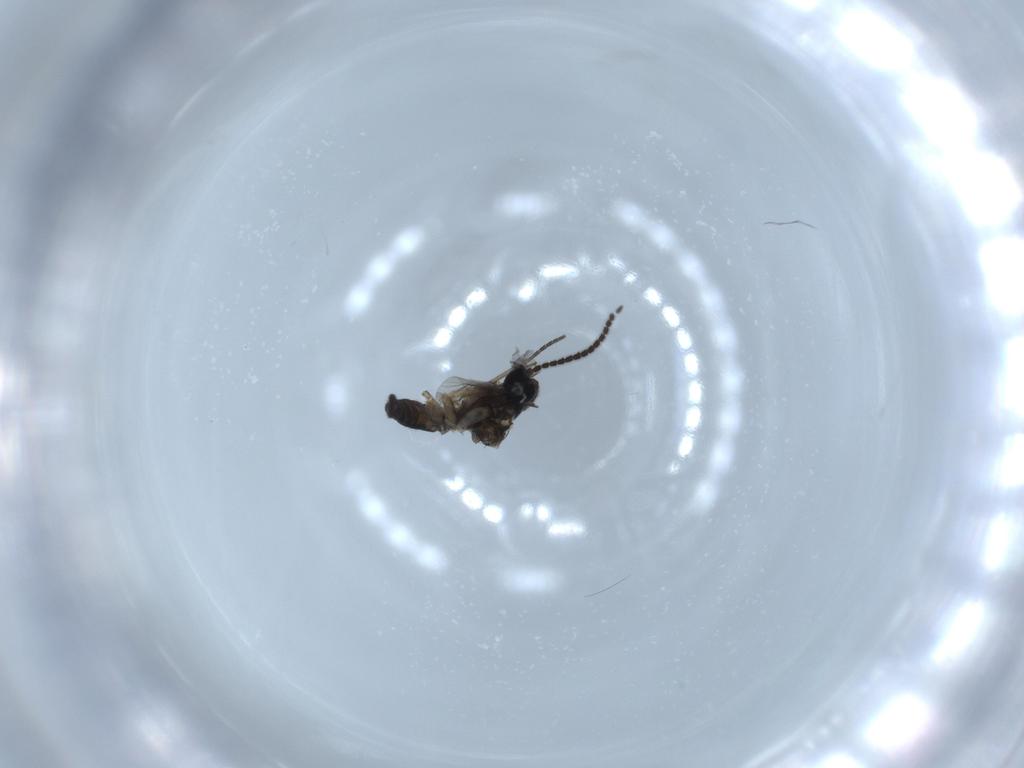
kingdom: Animalia
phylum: Arthropoda
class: Insecta
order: Diptera
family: Sciaridae
